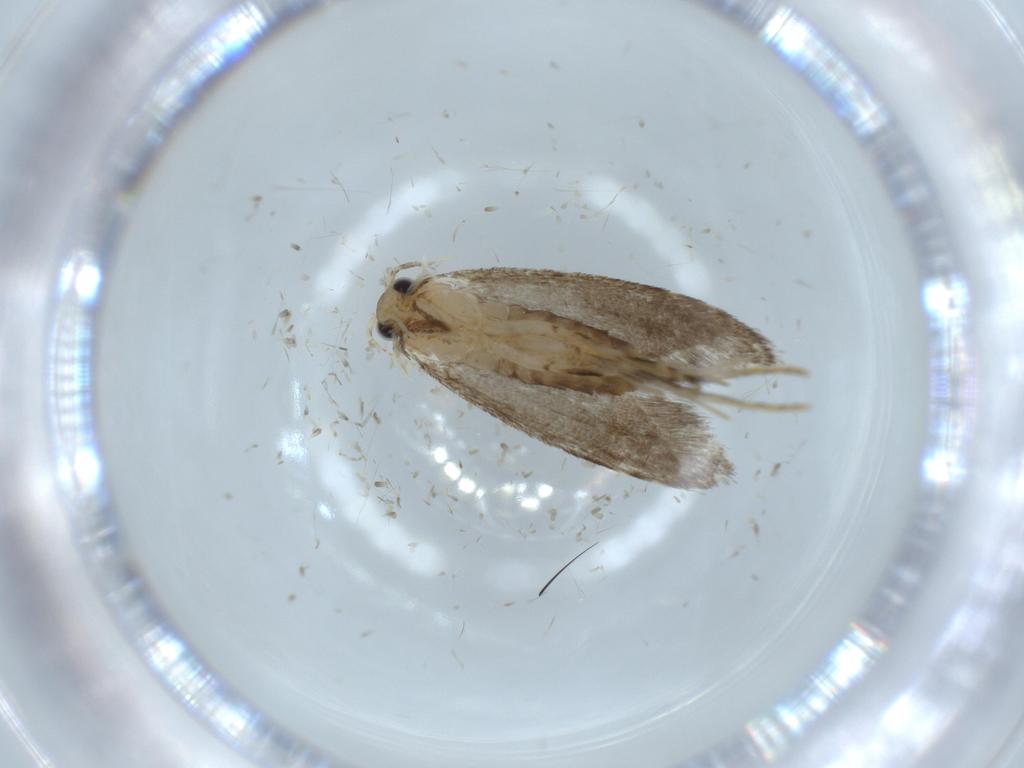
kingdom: Animalia
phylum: Arthropoda
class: Insecta
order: Lepidoptera
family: Tineidae
